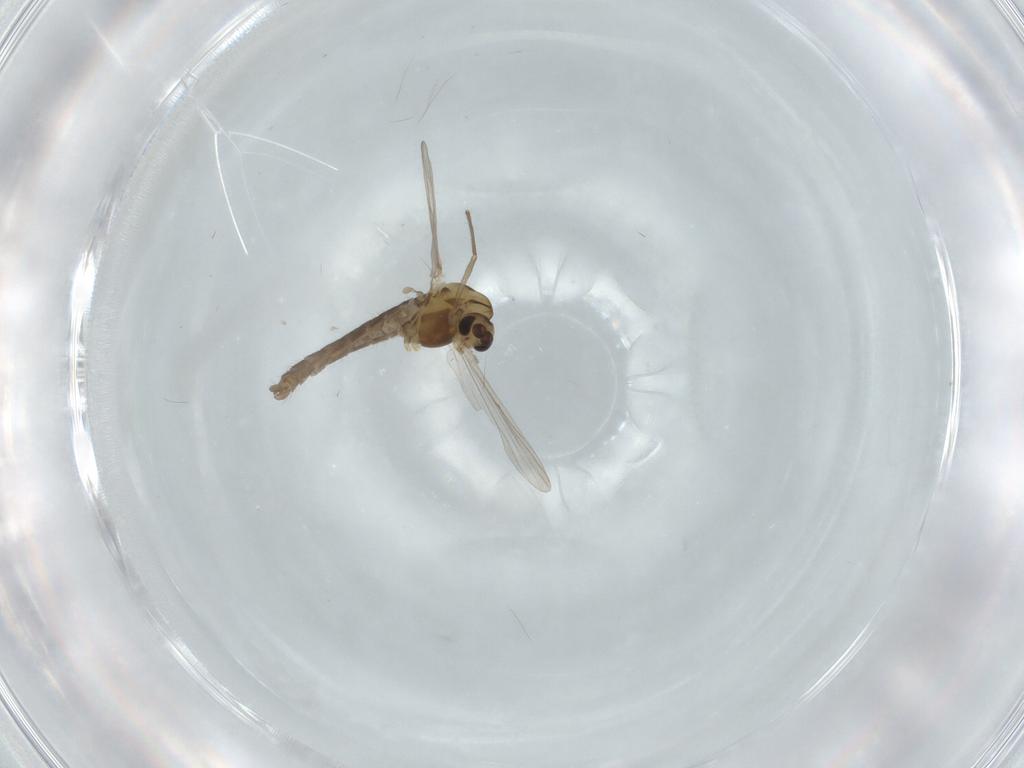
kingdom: Animalia
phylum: Arthropoda
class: Insecta
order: Diptera
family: Chironomidae
